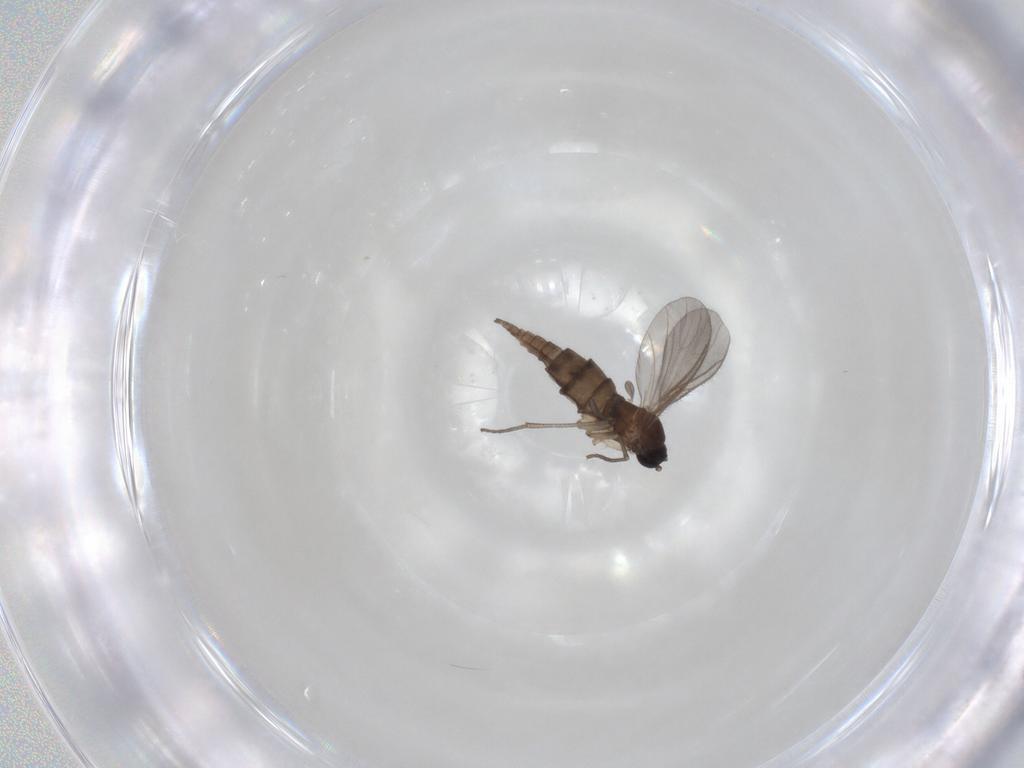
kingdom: Animalia
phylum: Arthropoda
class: Insecta
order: Diptera
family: Sciaridae
